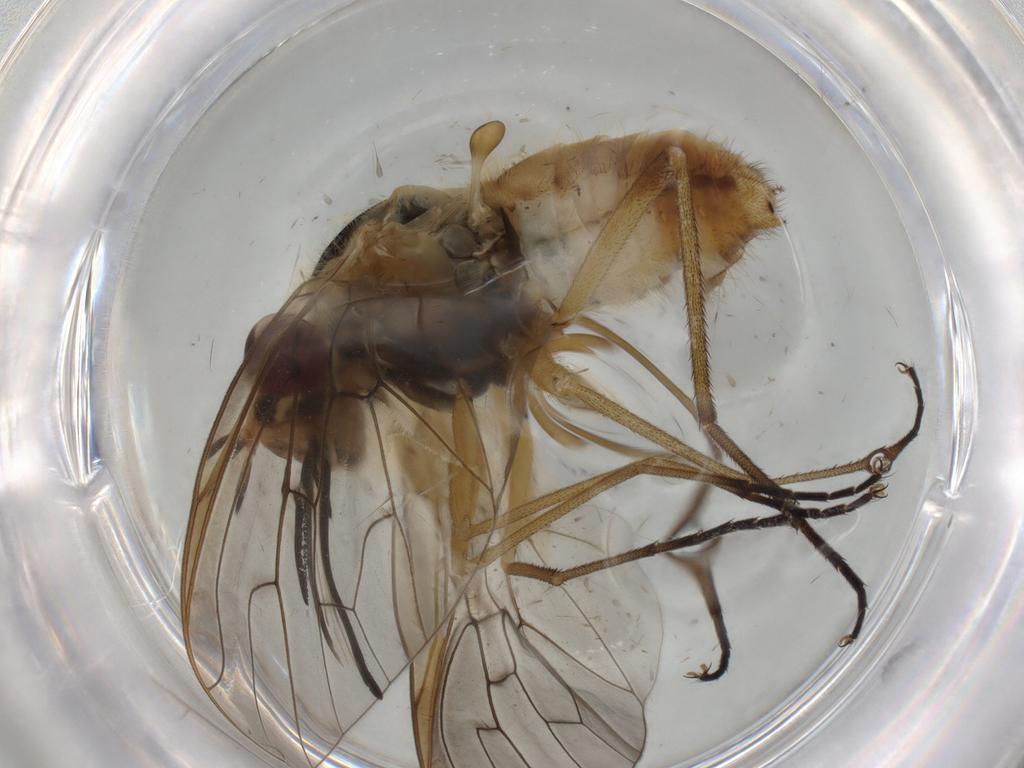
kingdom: Animalia
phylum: Arthropoda
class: Insecta
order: Diptera
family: Bombyliidae
